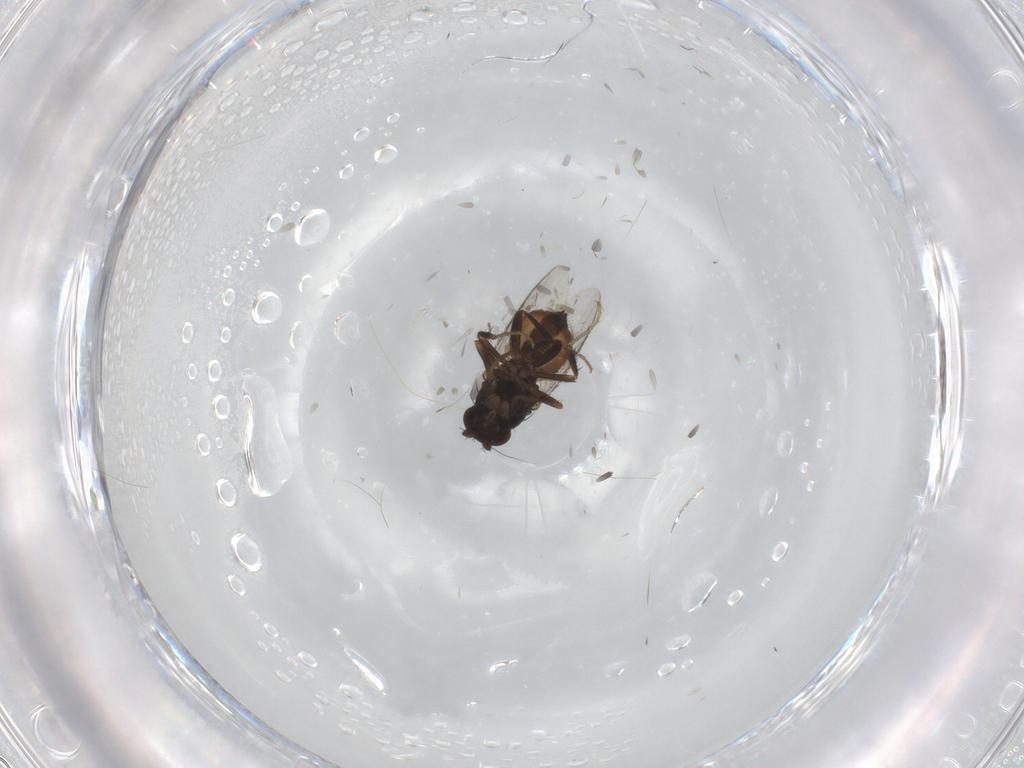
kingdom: Animalia
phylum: Arthropoda
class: Insecta
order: Diptera
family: Sphaeroceridae
